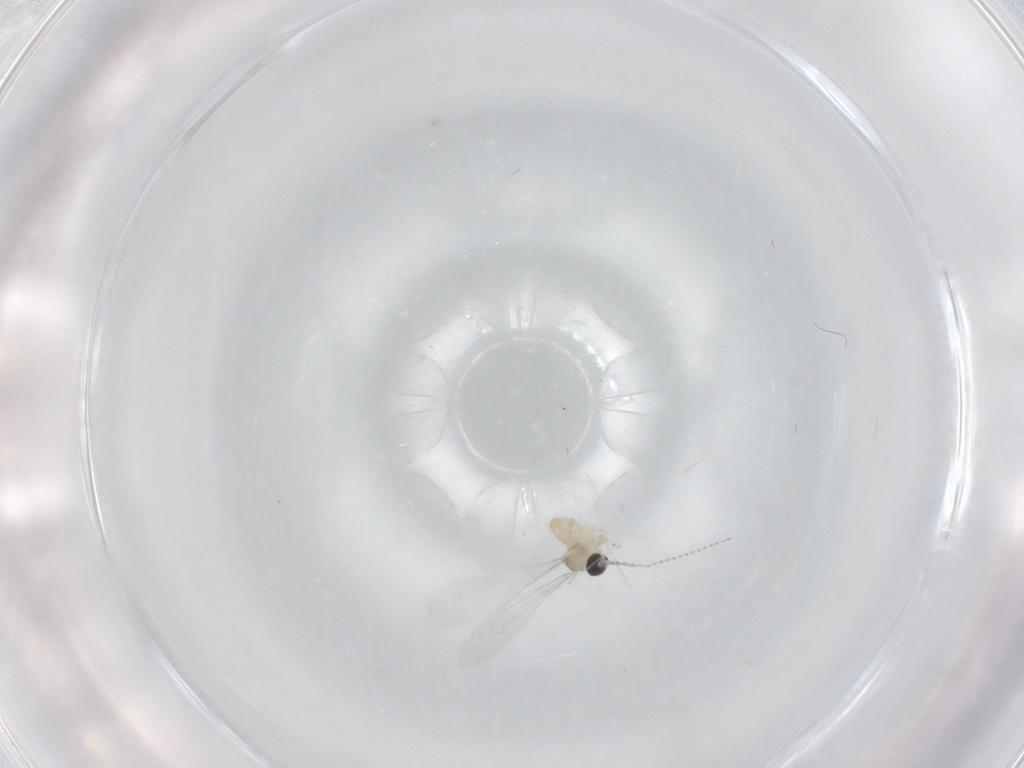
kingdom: Animalia
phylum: Arthropoda
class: Insecta
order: Diptera
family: Cecidomyiidae
